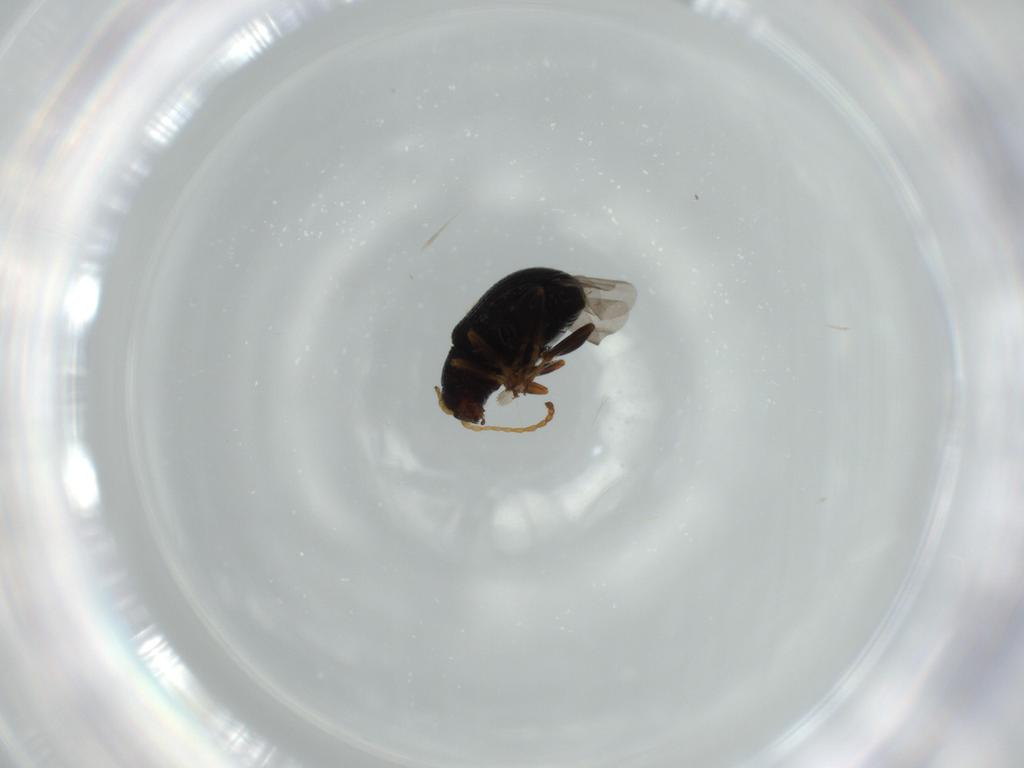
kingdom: Animalia
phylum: Arthropoda
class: Insecta
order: Coleoptera
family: Chrysomelidae
